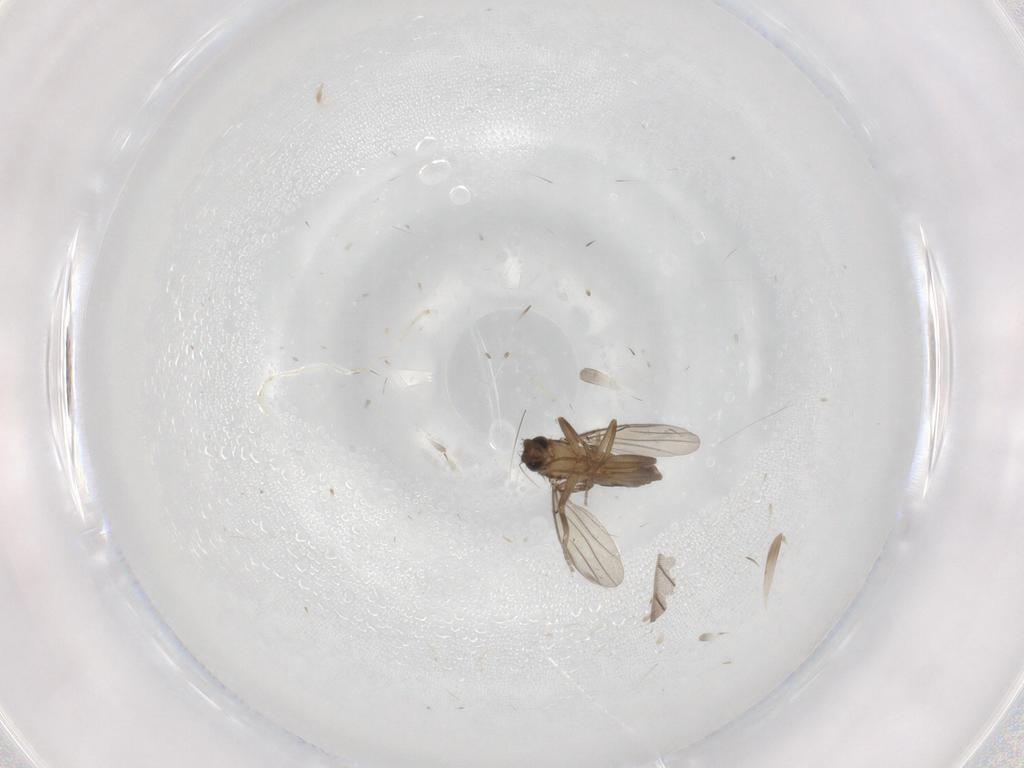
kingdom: Animalia
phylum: Arthropoda
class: Insecta
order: Diptera
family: Sciaridae
